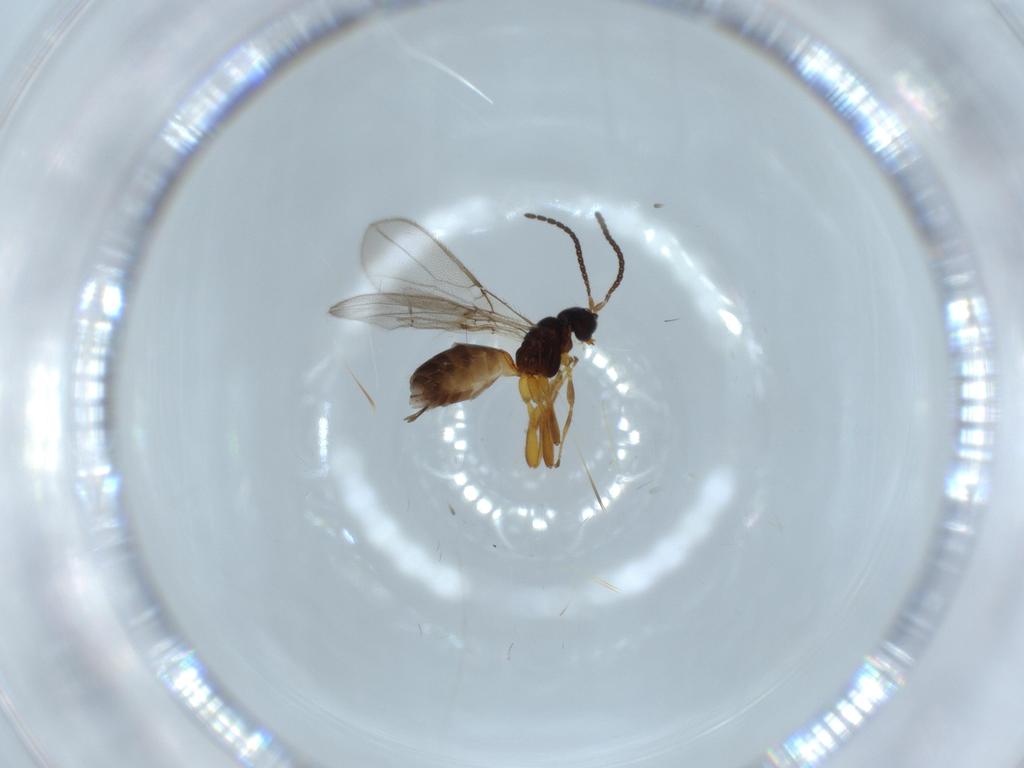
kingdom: Animalia
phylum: Arthropoda
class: Insecta
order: Hymenoptera
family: Braconidae
